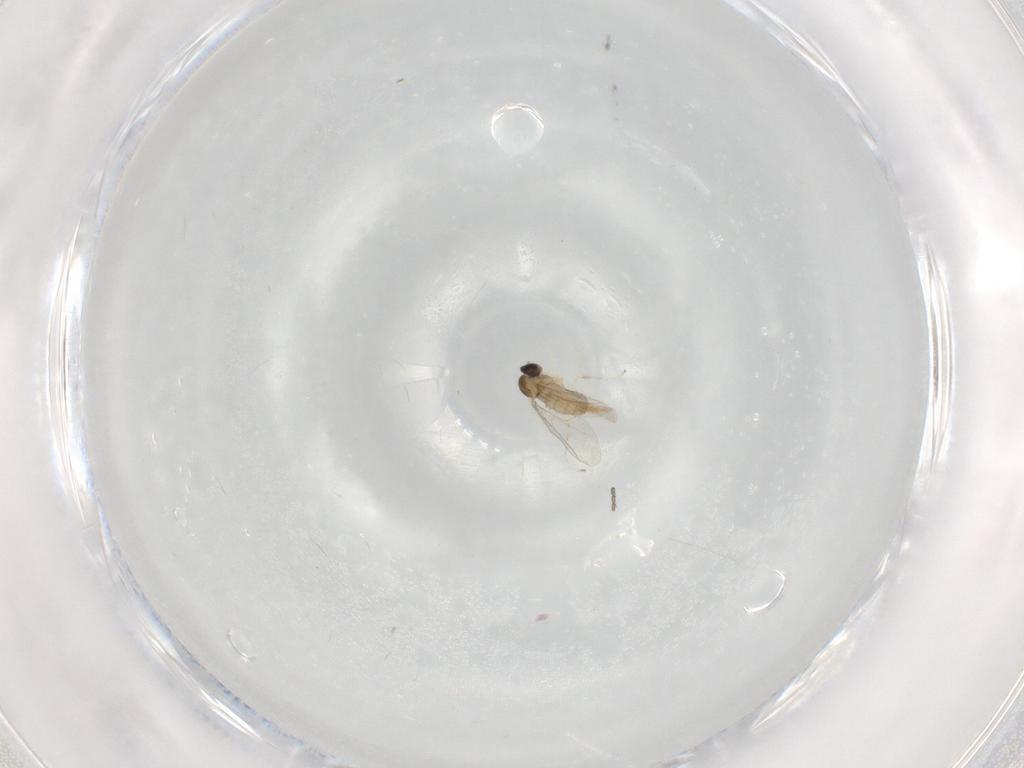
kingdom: Animalia
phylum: Arthropoda
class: Insecta
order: Diptera
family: Cecidomyiidae
